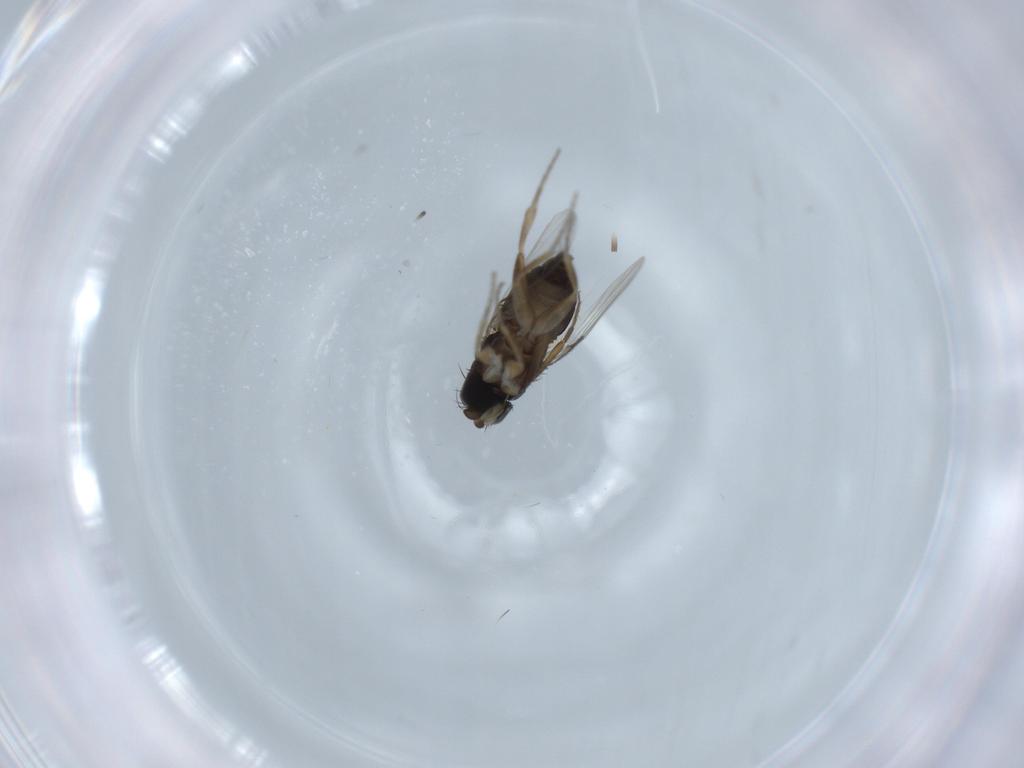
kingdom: Animalia
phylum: Arthropoda
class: Insecta
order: Diptera
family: Phoridae
